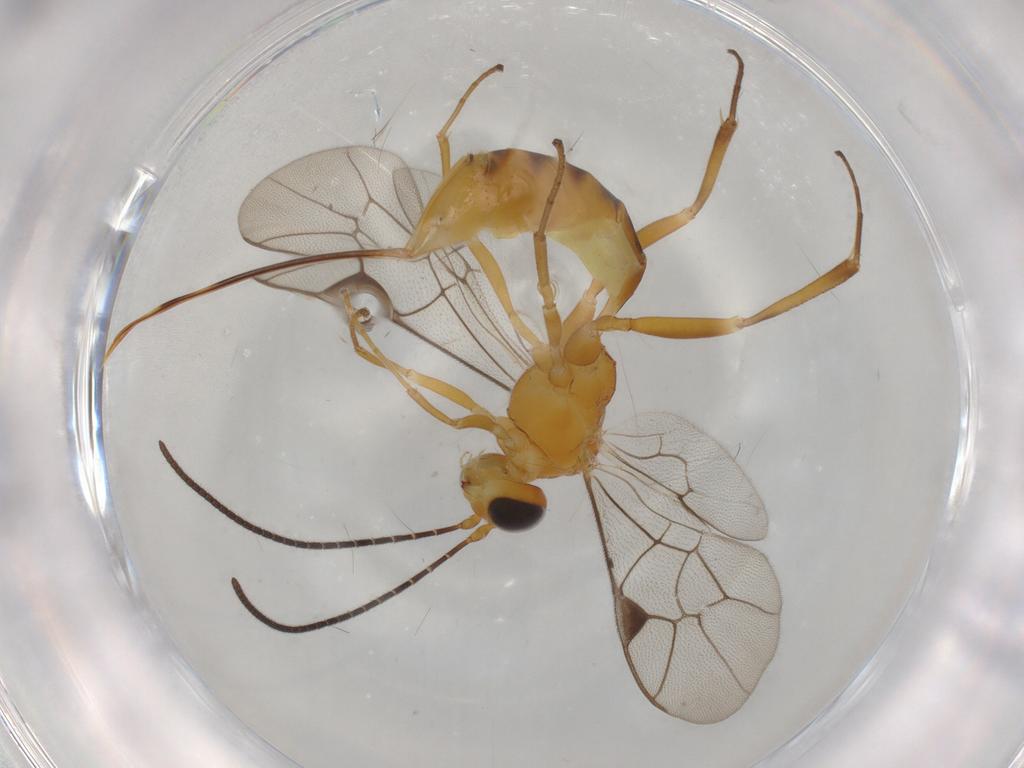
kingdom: Animalia
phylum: Arthropoda
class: Insecta
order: Hymenoptera
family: Ichneumonidae
